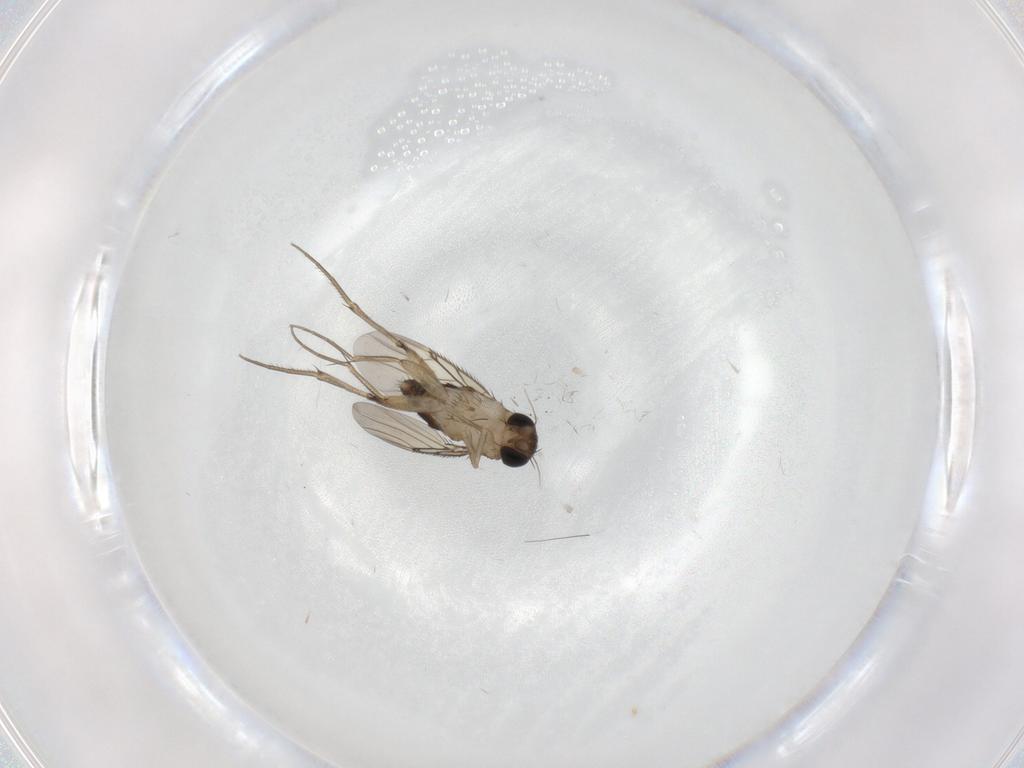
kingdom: Animalia
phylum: Arthropoda
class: Insecta
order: Diptera
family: Phoridae
